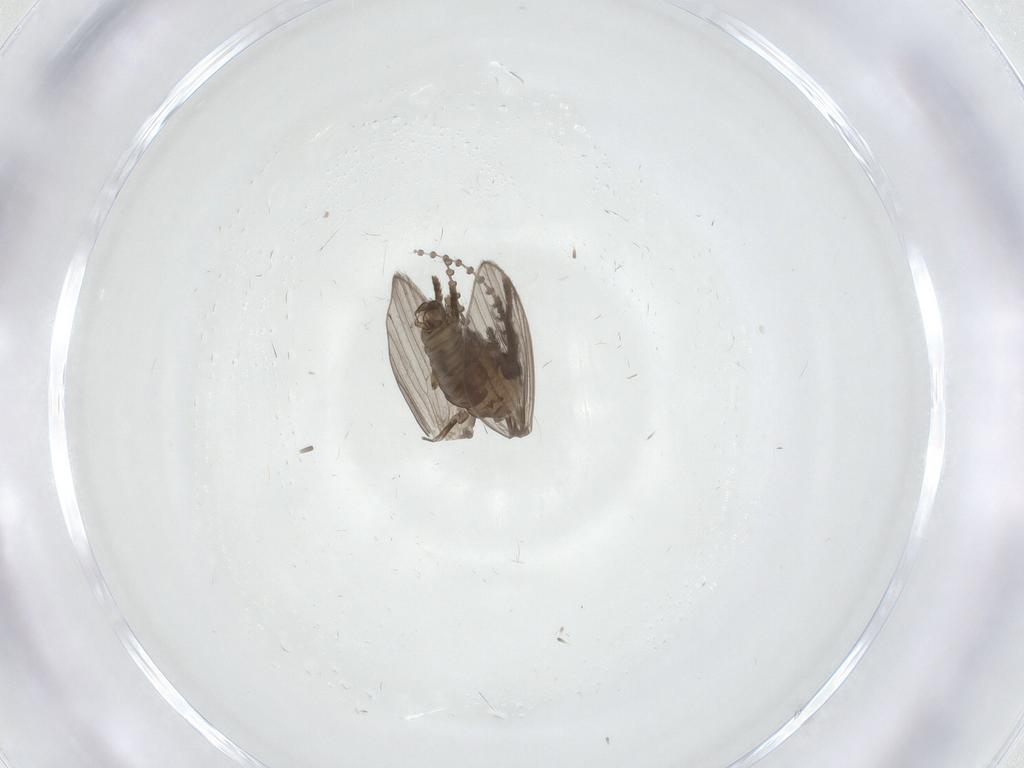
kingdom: Animalia
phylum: Arthropoda
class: Insecta
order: Diptera
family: Psychodidae
